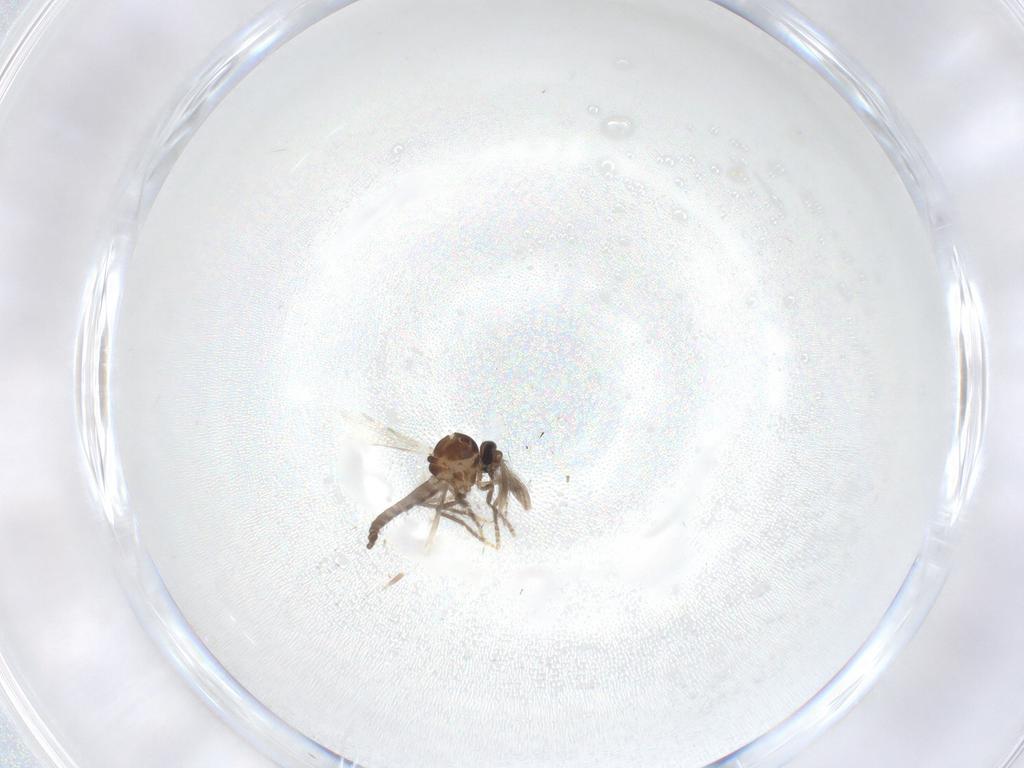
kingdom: Animalia
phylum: Arthropoda
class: Insecta
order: Diptera
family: Ceratopogonidae
